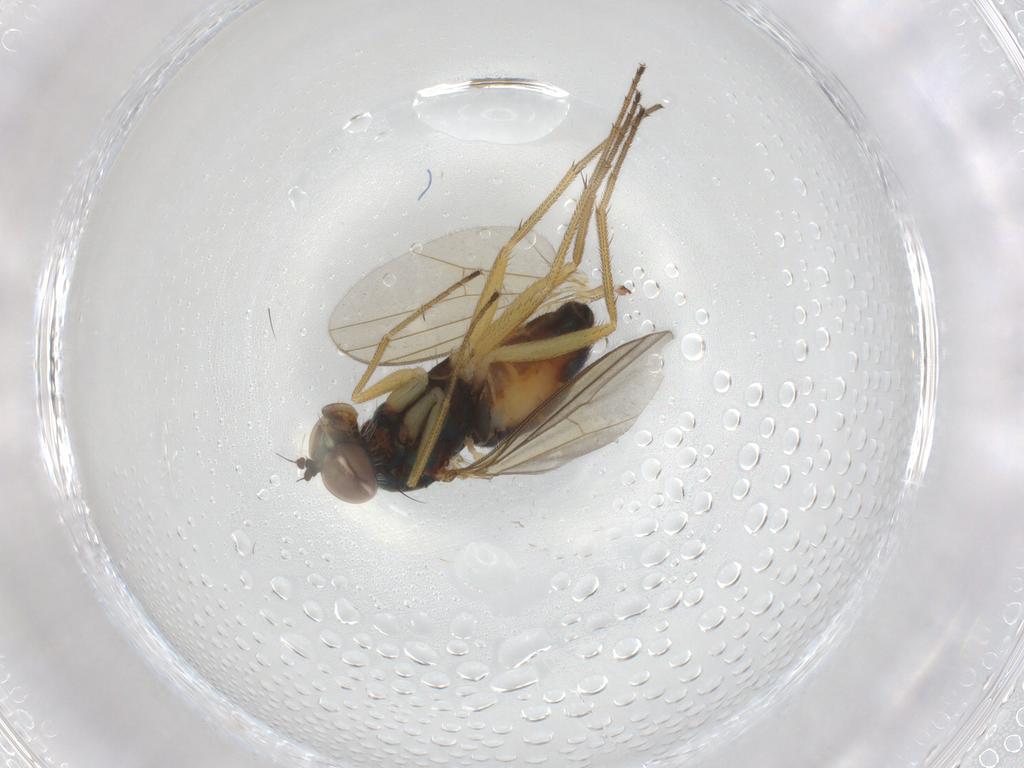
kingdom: Animalia
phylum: Arthropoda
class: Insecta
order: Diptera
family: Dolichopodidae
